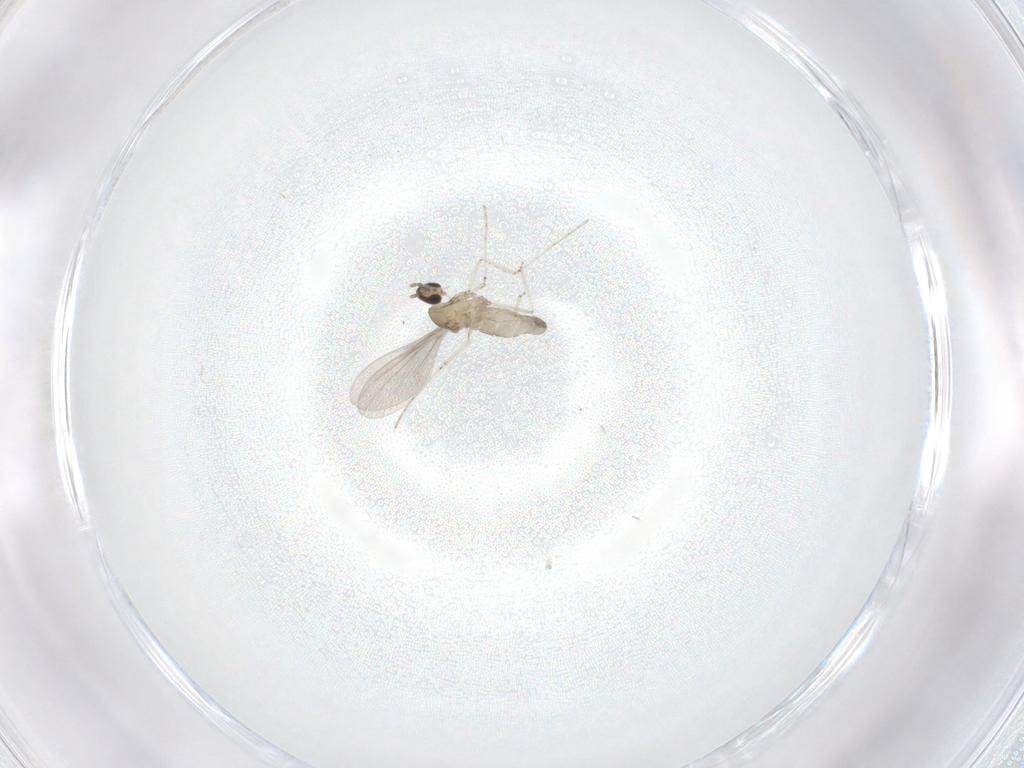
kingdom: Animalia
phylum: Arthropoda
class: Insecta
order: Diptera
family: Cecidomyiidae
